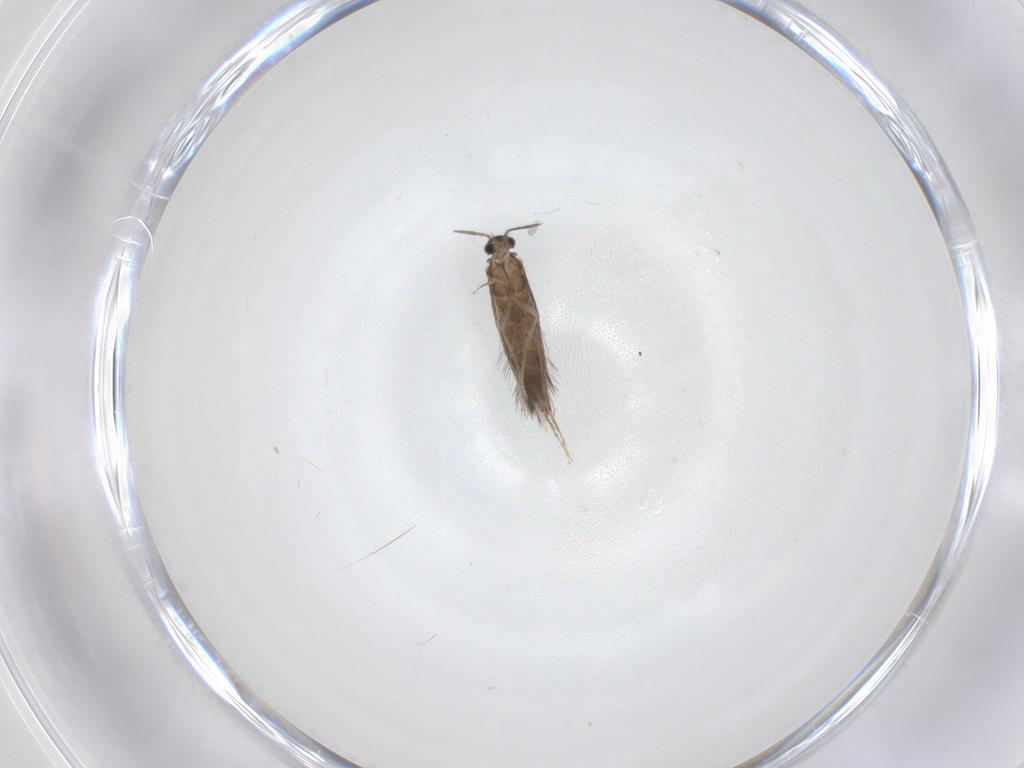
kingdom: Animalia
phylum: Arthropoda
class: Insecta
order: Trichoptera
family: Hydroptilidae
